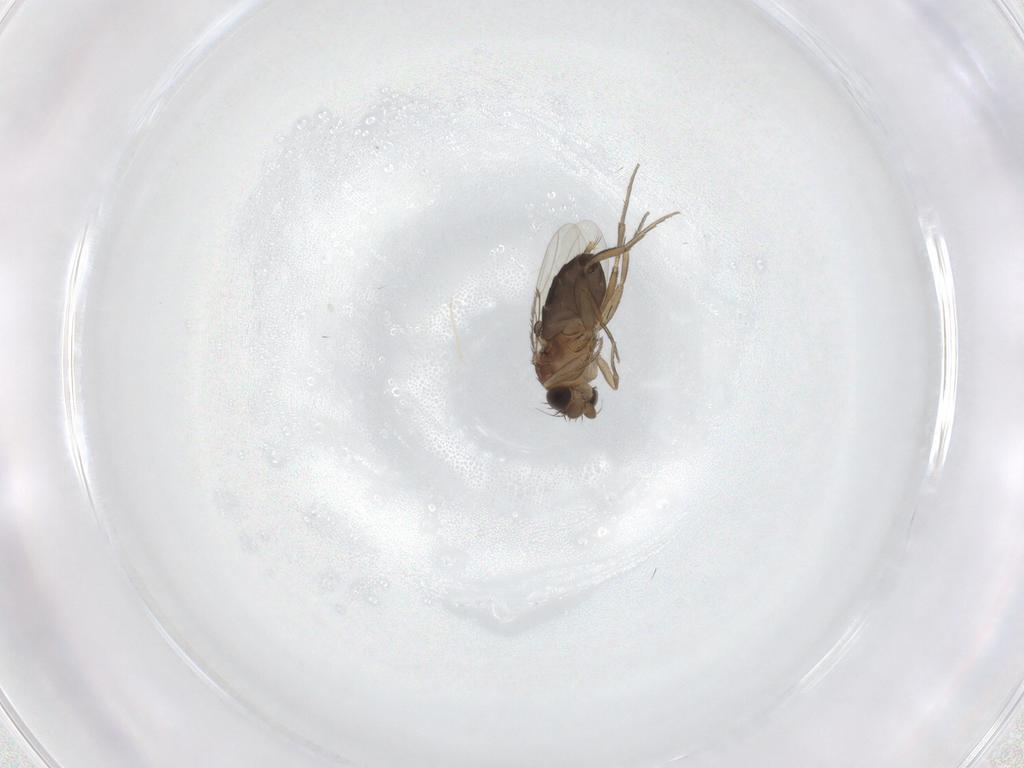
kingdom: Animalia
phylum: Arthropoda
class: Insecta
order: Diptera
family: Phoridae
